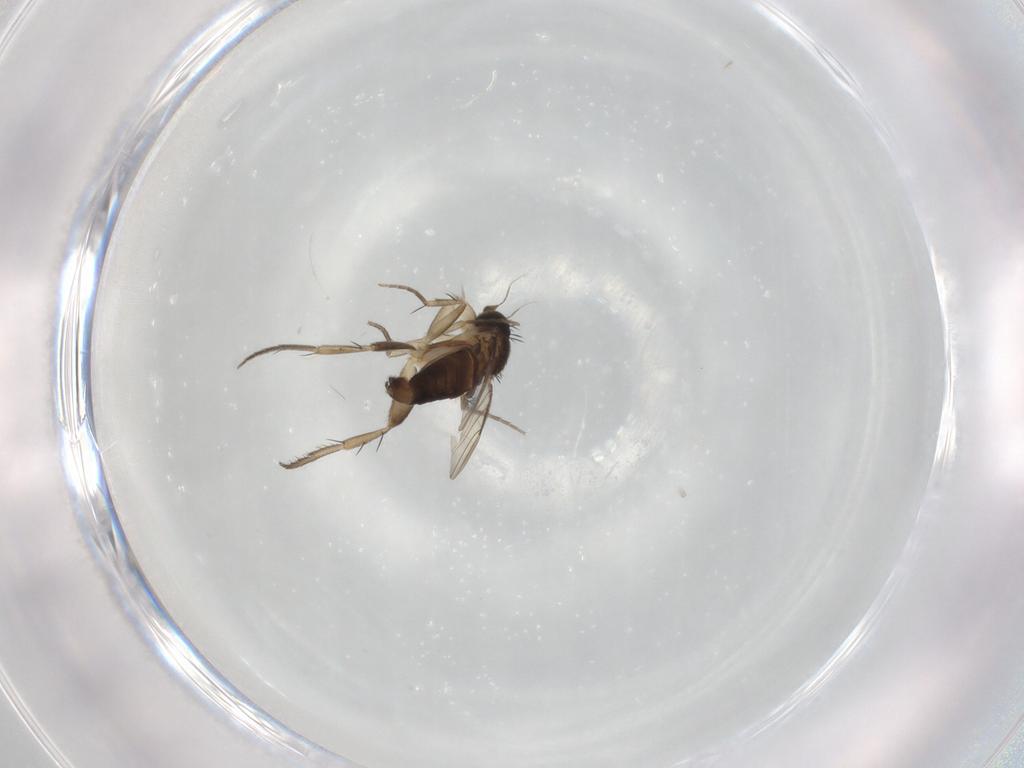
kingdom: Animalia
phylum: Arthropoda
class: Insecta
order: Diptera
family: Phoridae
